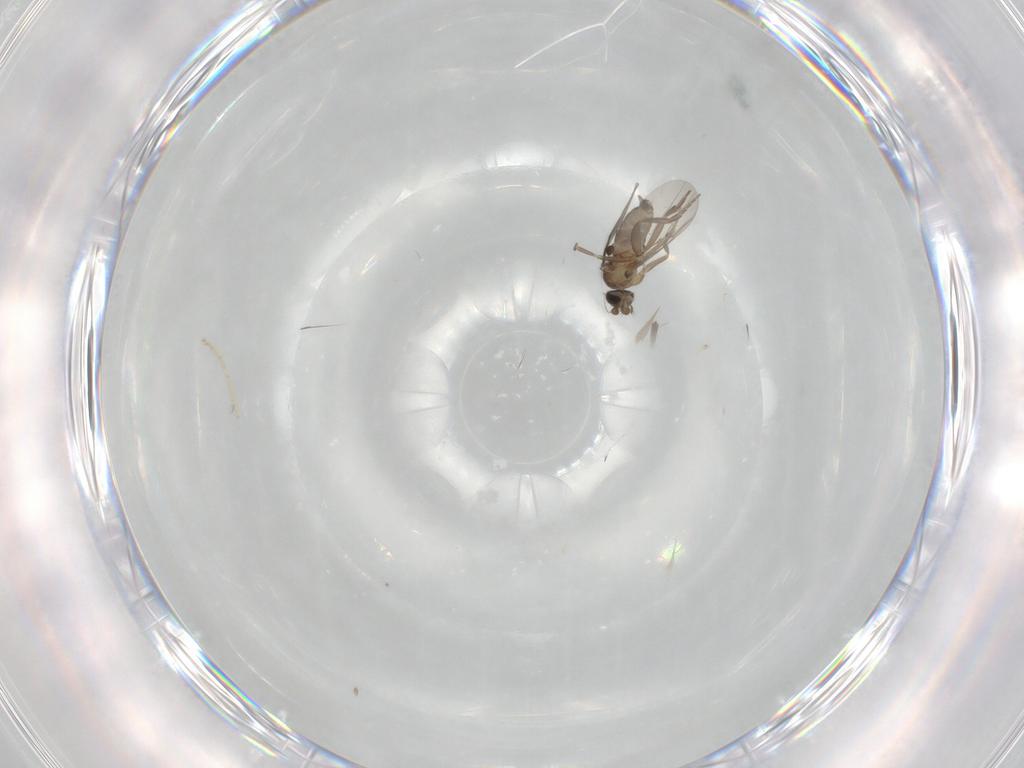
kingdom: Animalia
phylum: Arthropoda
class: Insecta
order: Diptera
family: Phoridae
